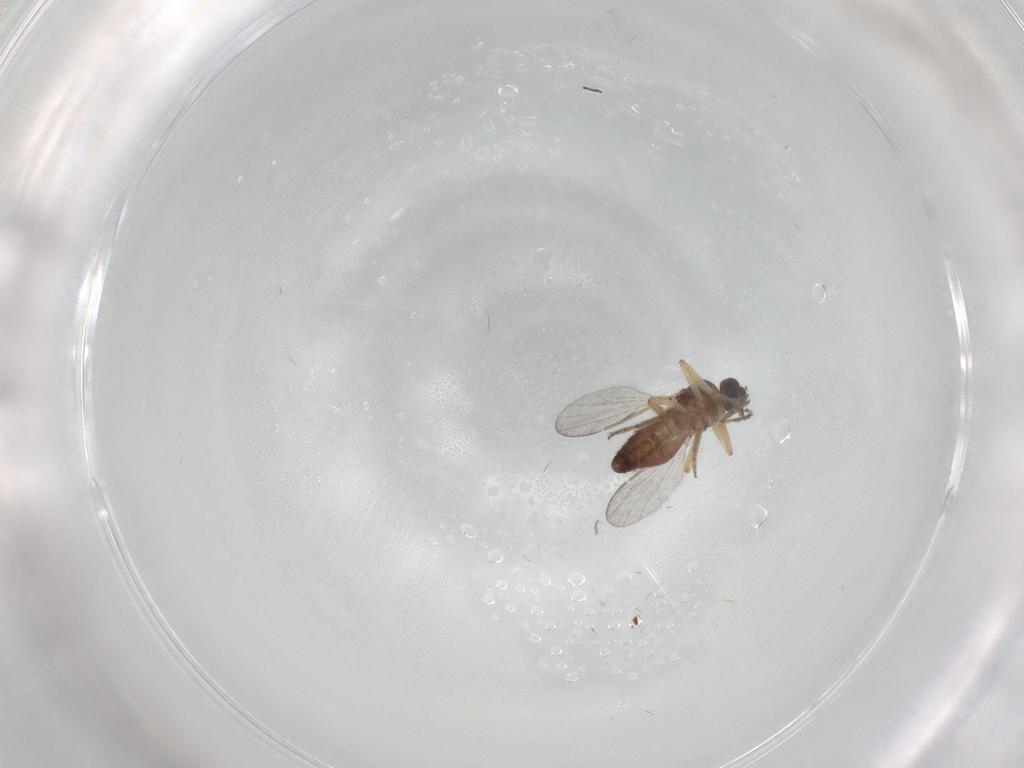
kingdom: Animalia
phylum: Arthropoda
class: Insecta
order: Diptera
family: Ceratopogonidae
